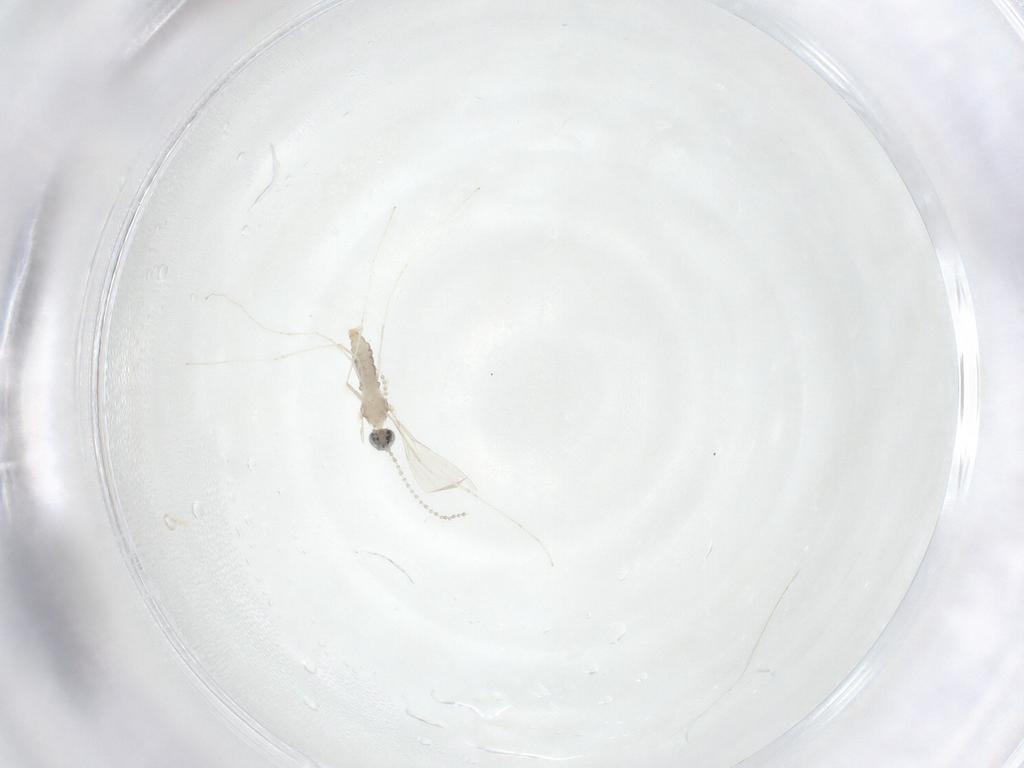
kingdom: Animalia
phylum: Arthropoda
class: Insecta
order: Diptera
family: Cecidomyiidae
